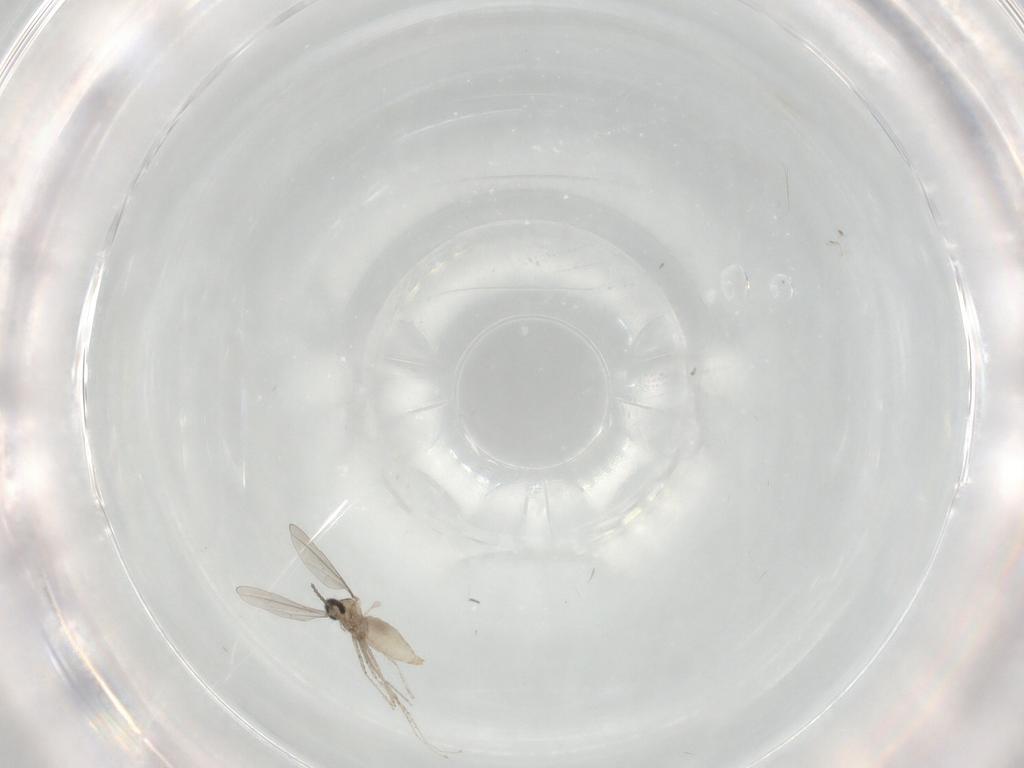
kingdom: Animalia
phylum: Arthropoda
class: Insecta
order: Diptera
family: Cecidomyiidae
